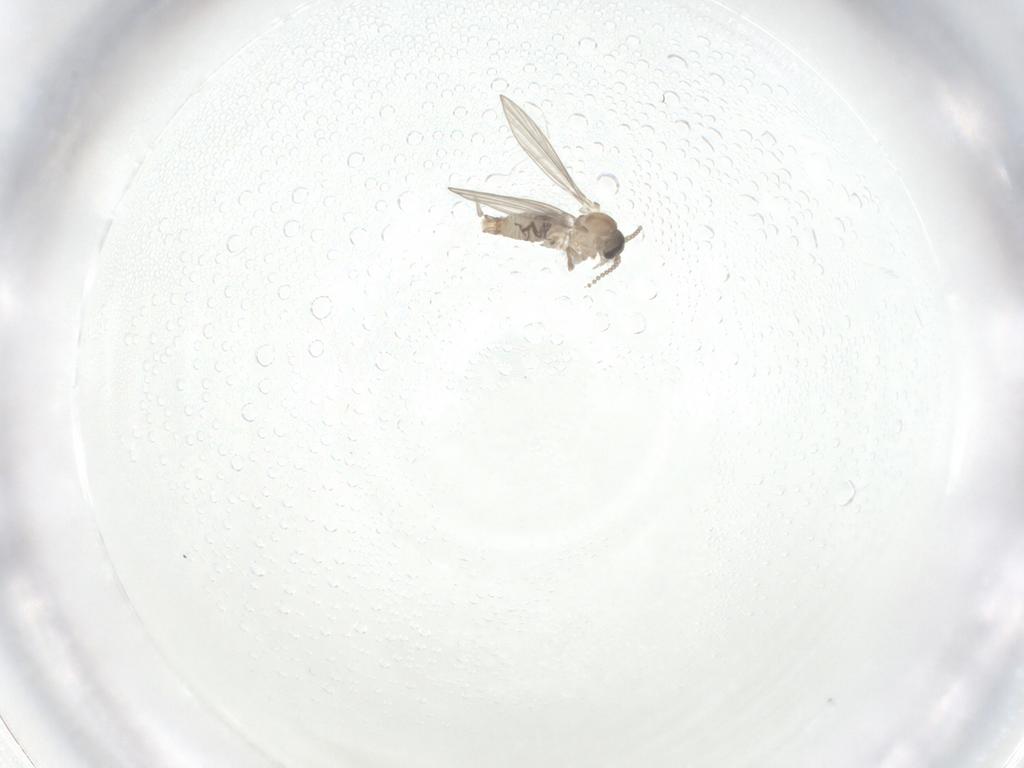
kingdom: Animalia
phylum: Arthropoda
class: Insecta
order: Diptera
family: Psychodidae
